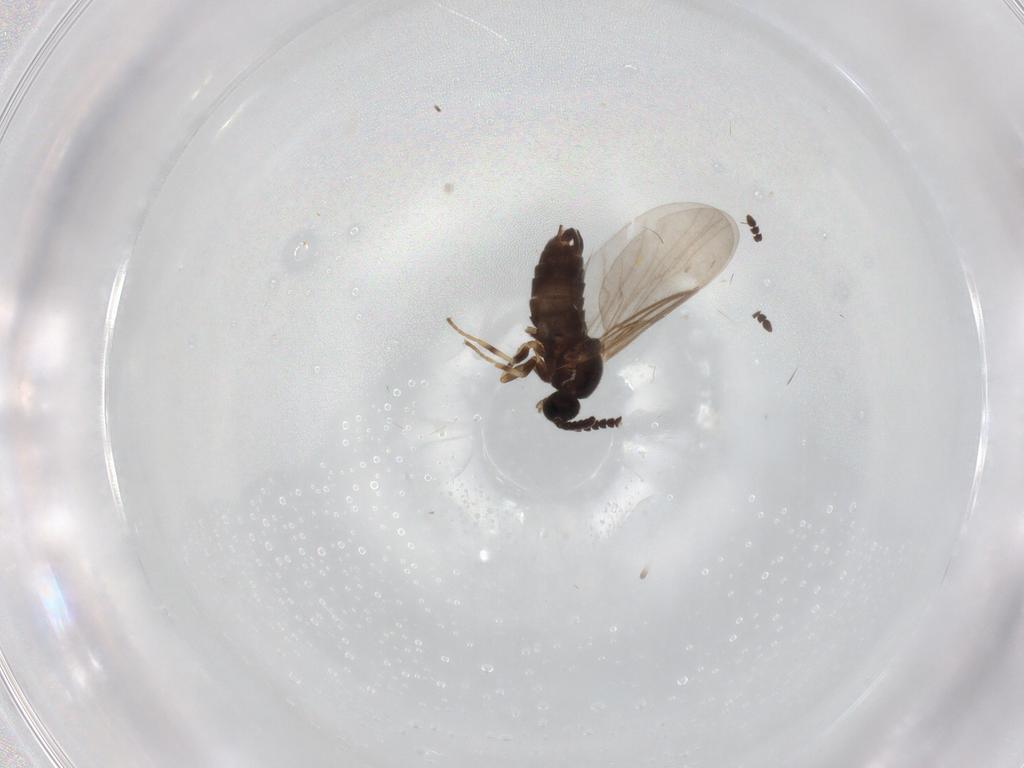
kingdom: Animalia
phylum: Arthropoda
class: Insecta
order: Diptera
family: Scatopsidae
